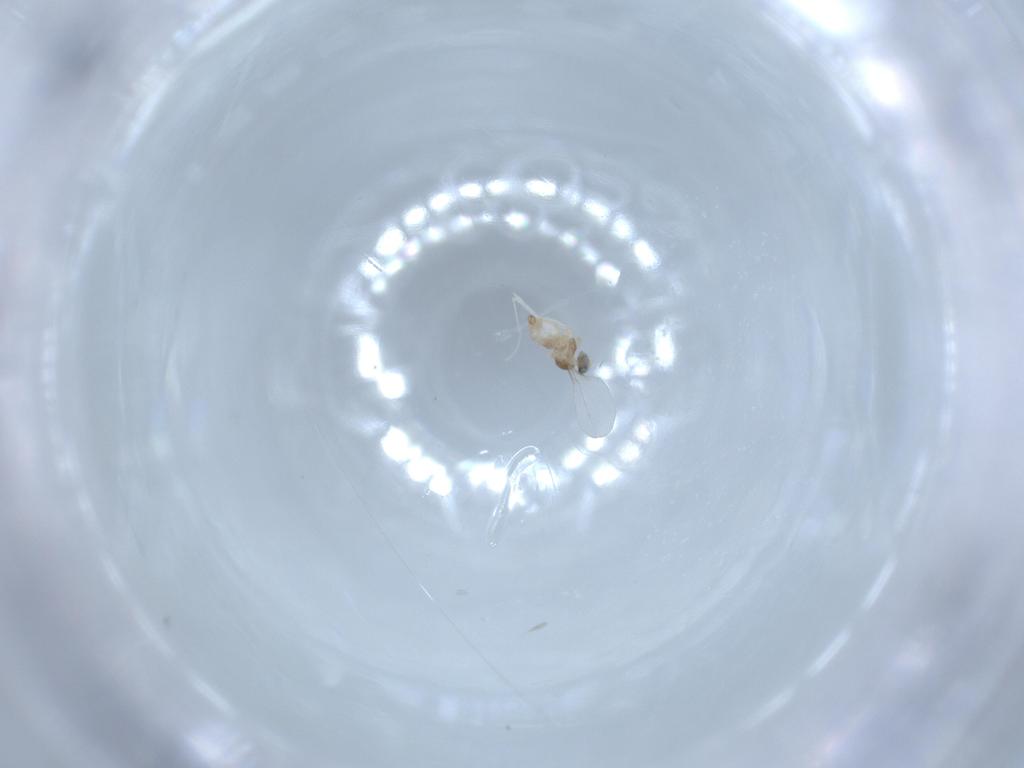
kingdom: Animalia
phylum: Arthropoda
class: Insecta
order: Diptera
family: Cecidomyiidae
